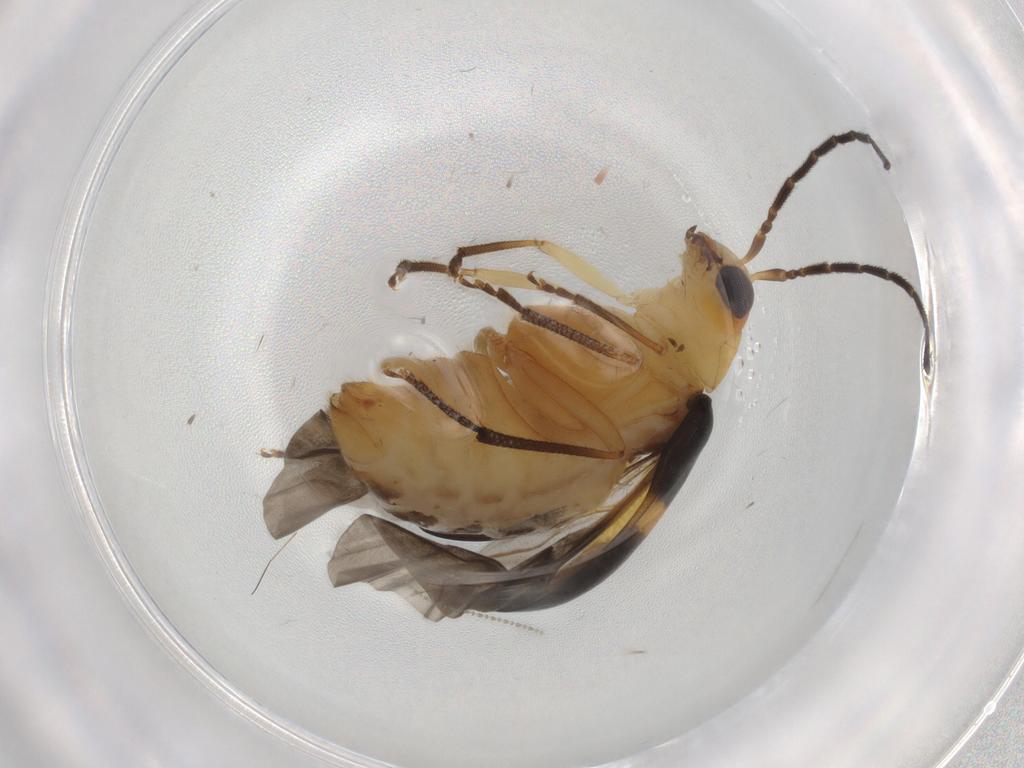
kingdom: Animalia
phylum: Arthropoda
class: Insecta
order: Coleoptera
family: Chrysomelidae
